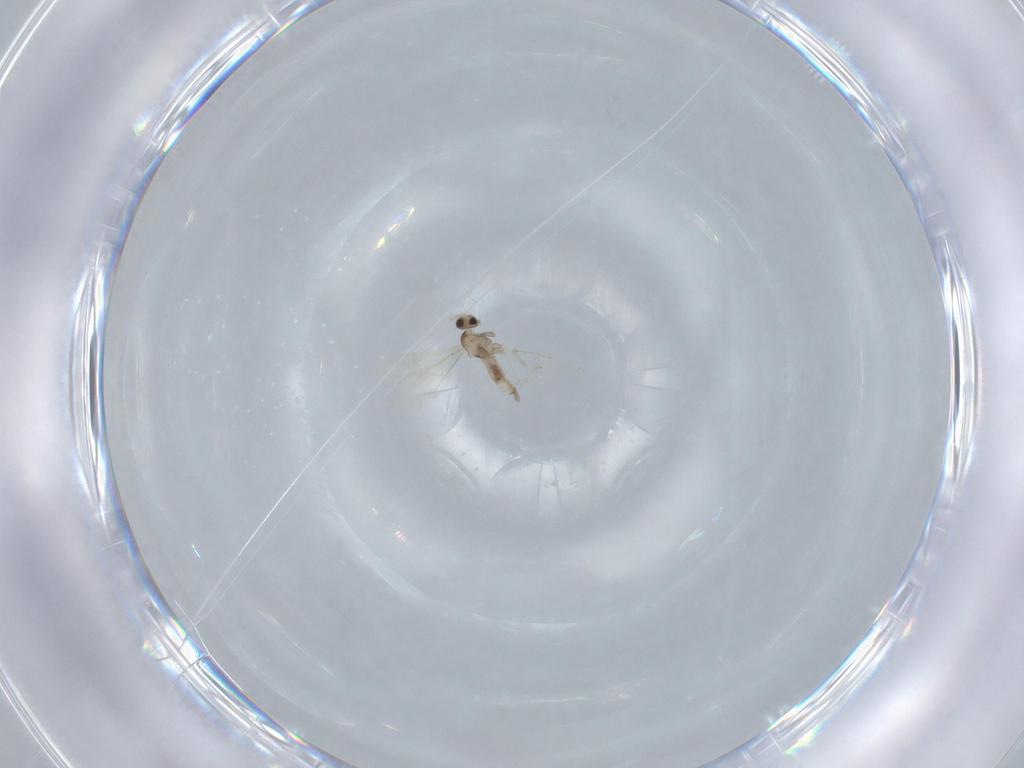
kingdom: Animalia
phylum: Arthropoda
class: Insecta
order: Diptera
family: Cecidomyiidae
